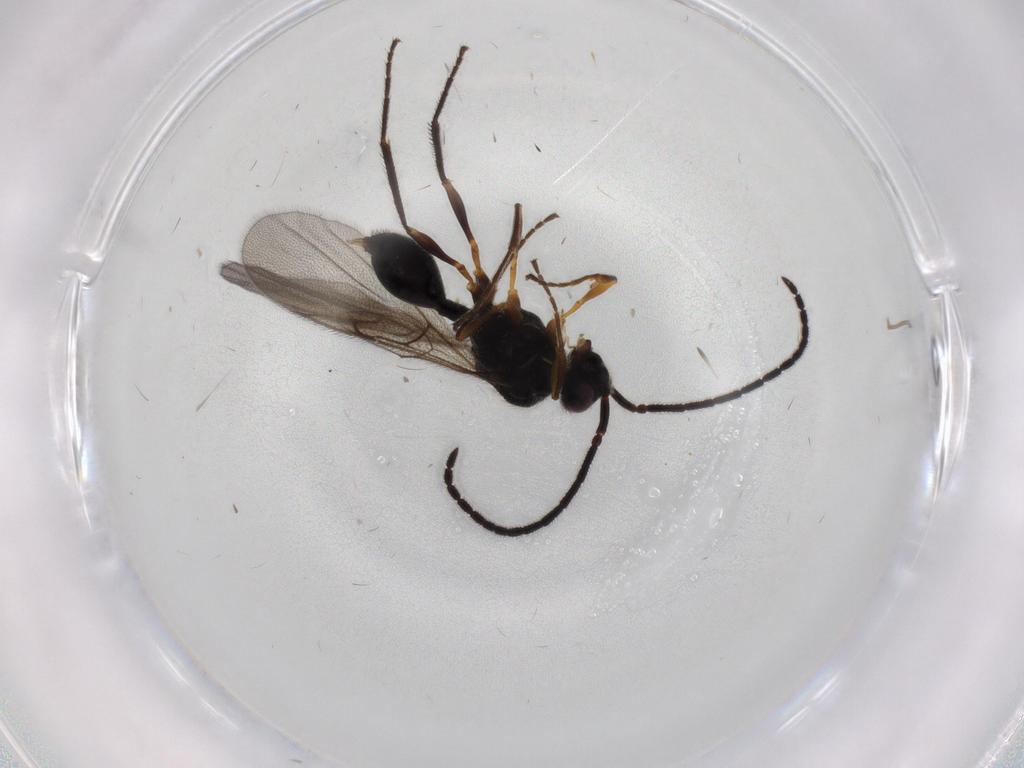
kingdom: Animalia
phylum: Arthropoda
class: Insecta
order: Hymenoptera
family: Diapriidae
